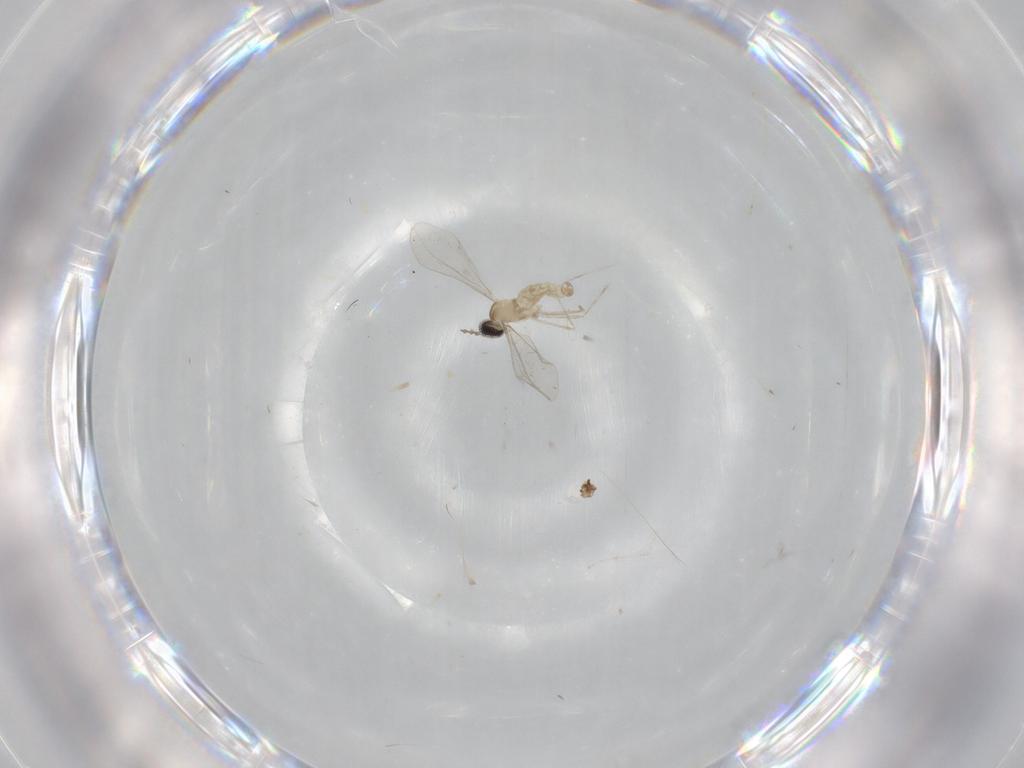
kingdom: Animalia
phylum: Arthropoda
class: Insecta
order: Diptera
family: Cecidomyiidae
